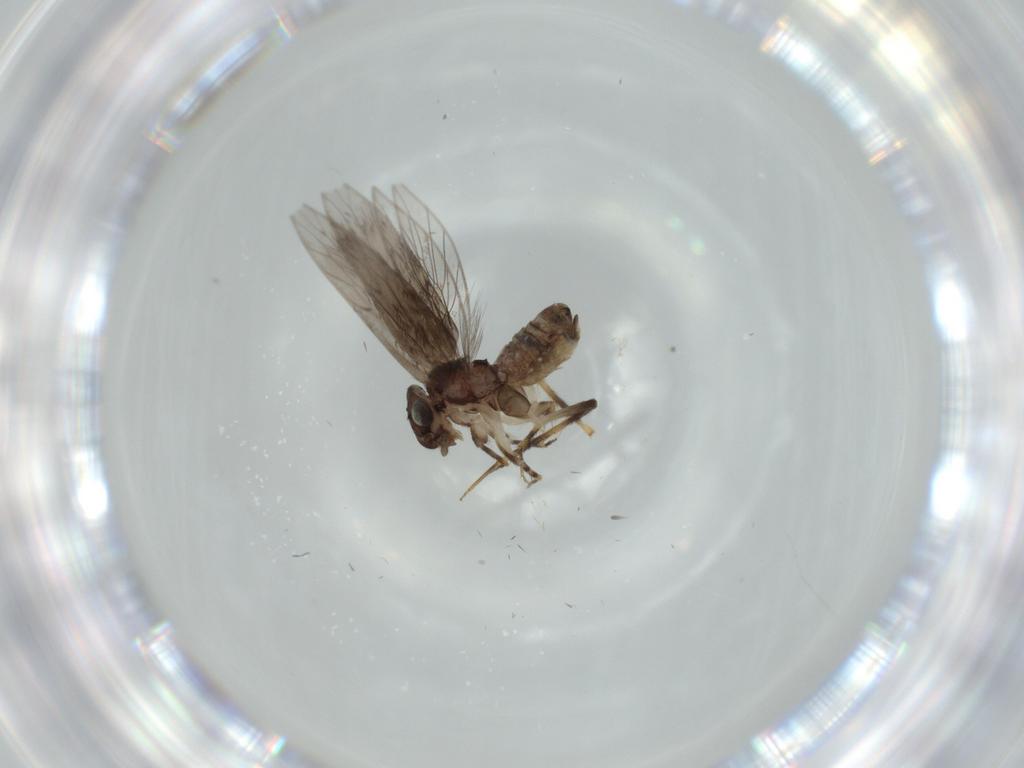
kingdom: Animalia
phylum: Arthropoda
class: Insecta
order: Psocodea
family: Lepidopsocidae
